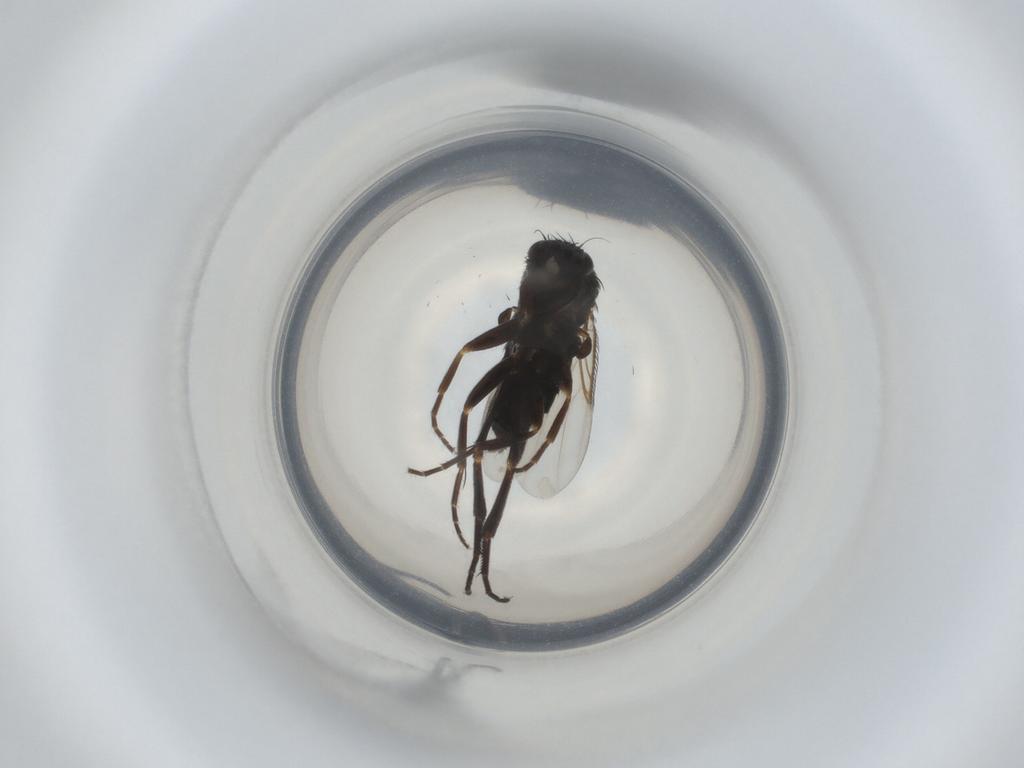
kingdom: Animalia
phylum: Arthropoda
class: Insecta
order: Diptera
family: Phoridae
